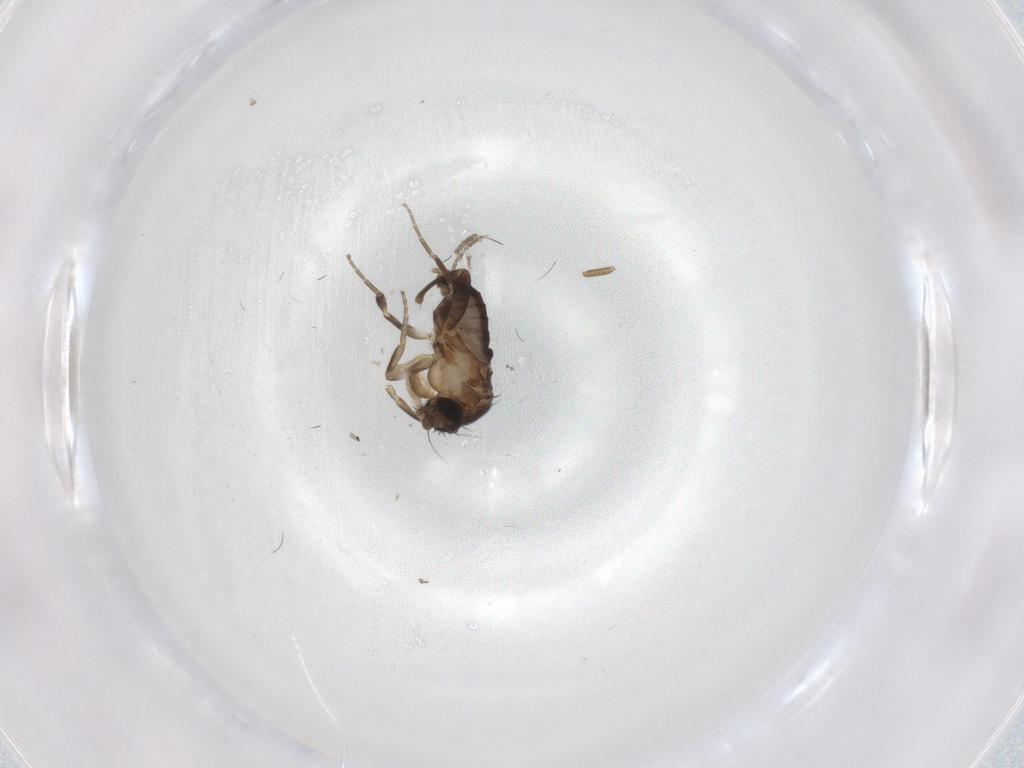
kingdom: Animalia
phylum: Arthropoda
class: Insecta
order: Diptera
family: Phoridae
